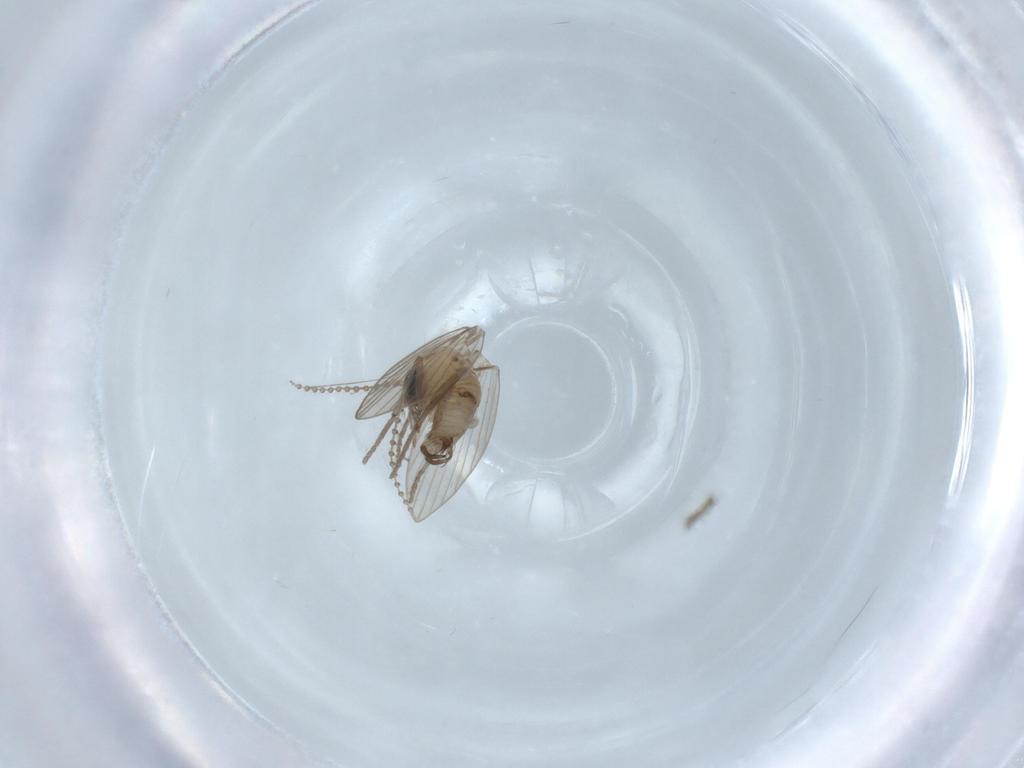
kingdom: Animalia
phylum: Arthropoda
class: Insecta
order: Diptera
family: Psychodidae
